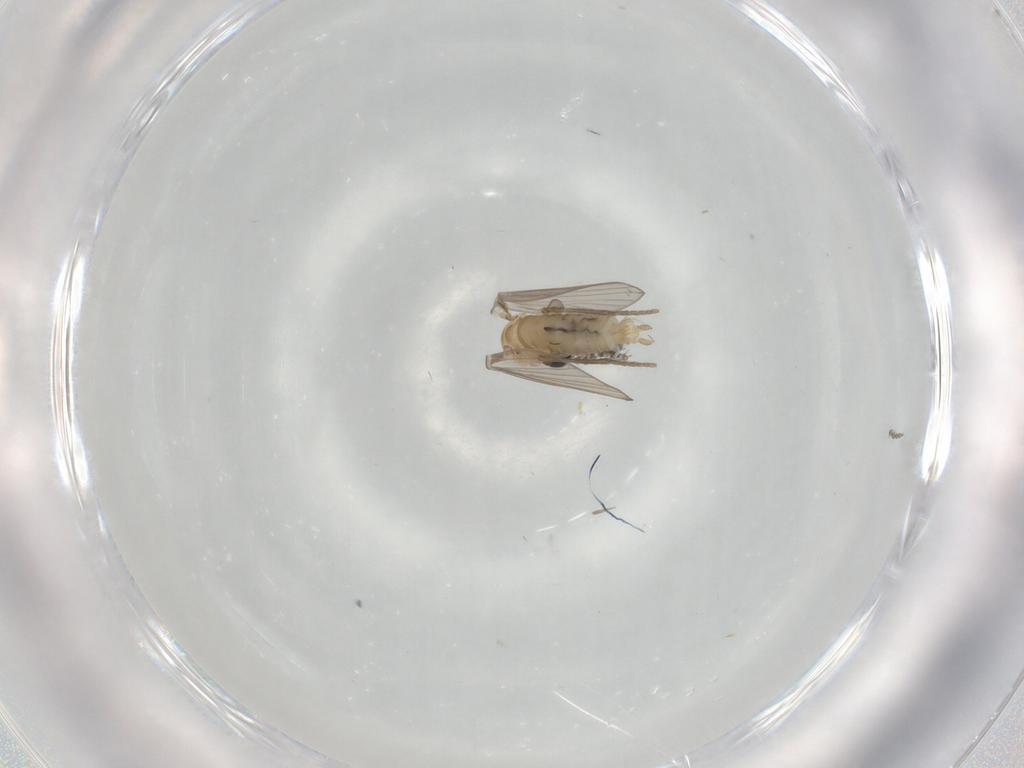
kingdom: Animalia
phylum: Arthropoda
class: Insecta
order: Diptera
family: Psychodidae
